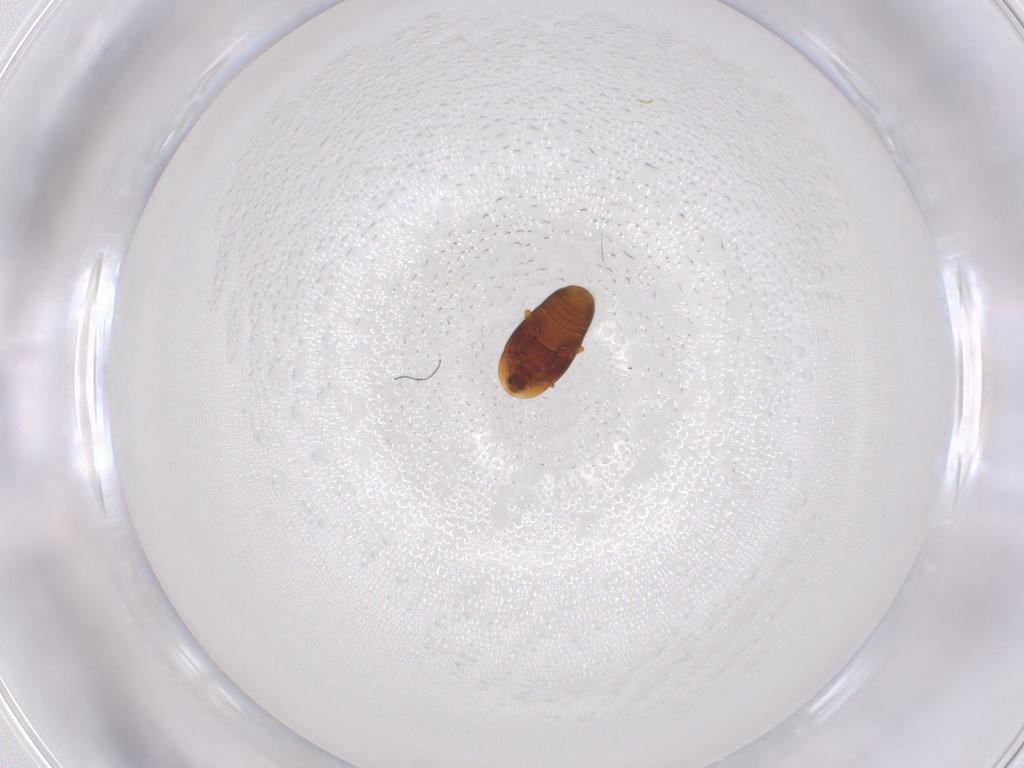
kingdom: Animalia
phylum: Arthropoda
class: Insecta
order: Coleoptera
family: Corylophidae
